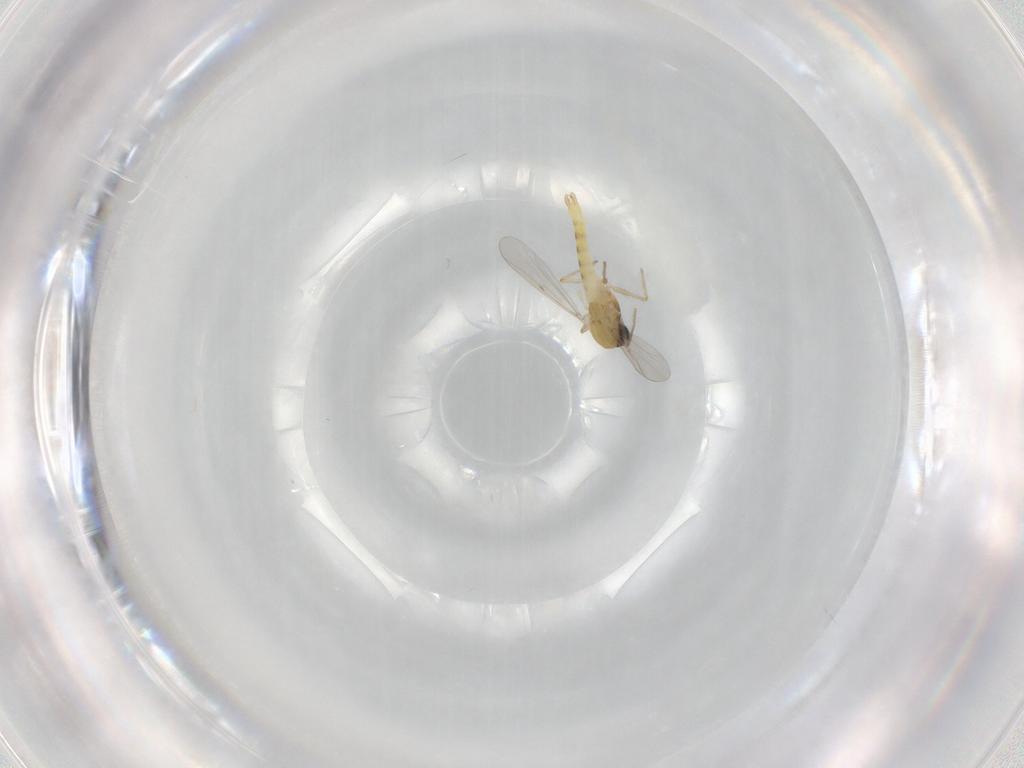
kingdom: Animalia
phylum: Arthropoda
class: Insecta
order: Diptera
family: Chironomidae
